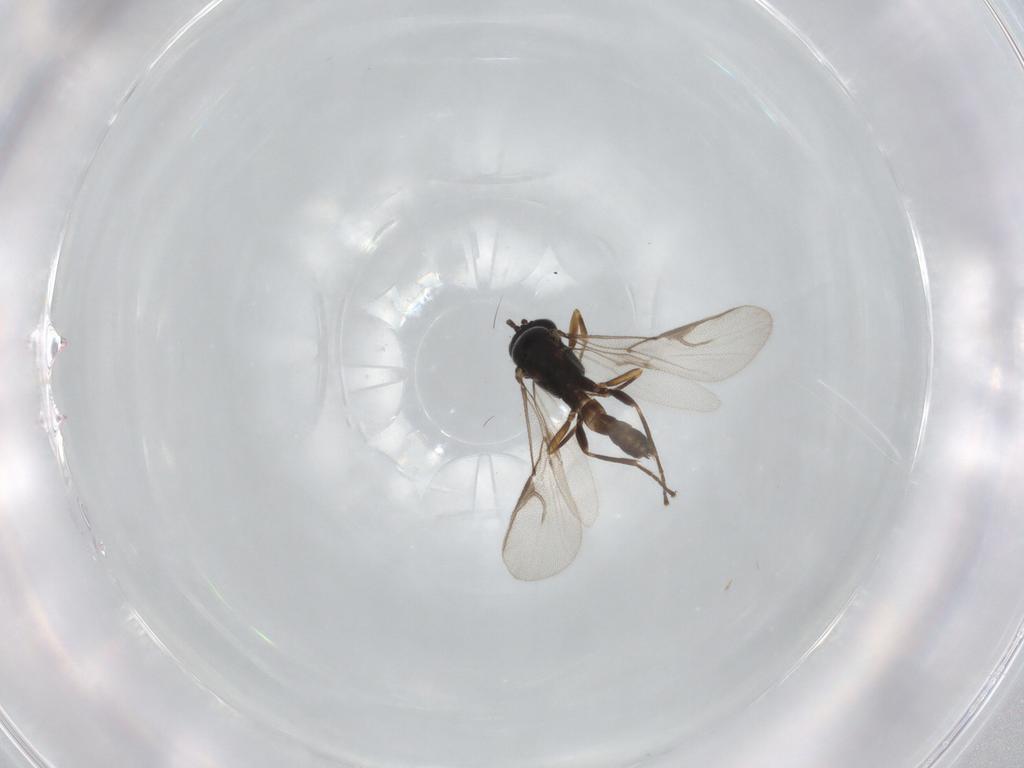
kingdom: Animalia
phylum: Arthropoda
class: Insecta
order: Hymenoptera
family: Braconidae
